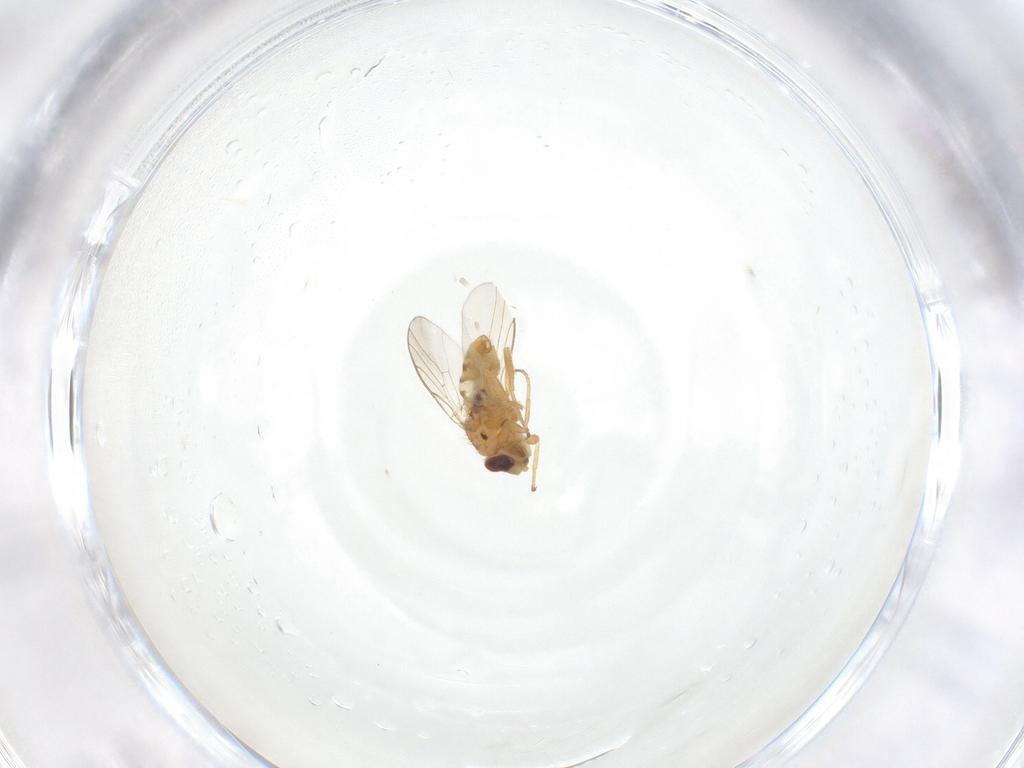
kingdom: Animalia
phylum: Arthropoda
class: Insecta
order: Diptera
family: Chloropidae
